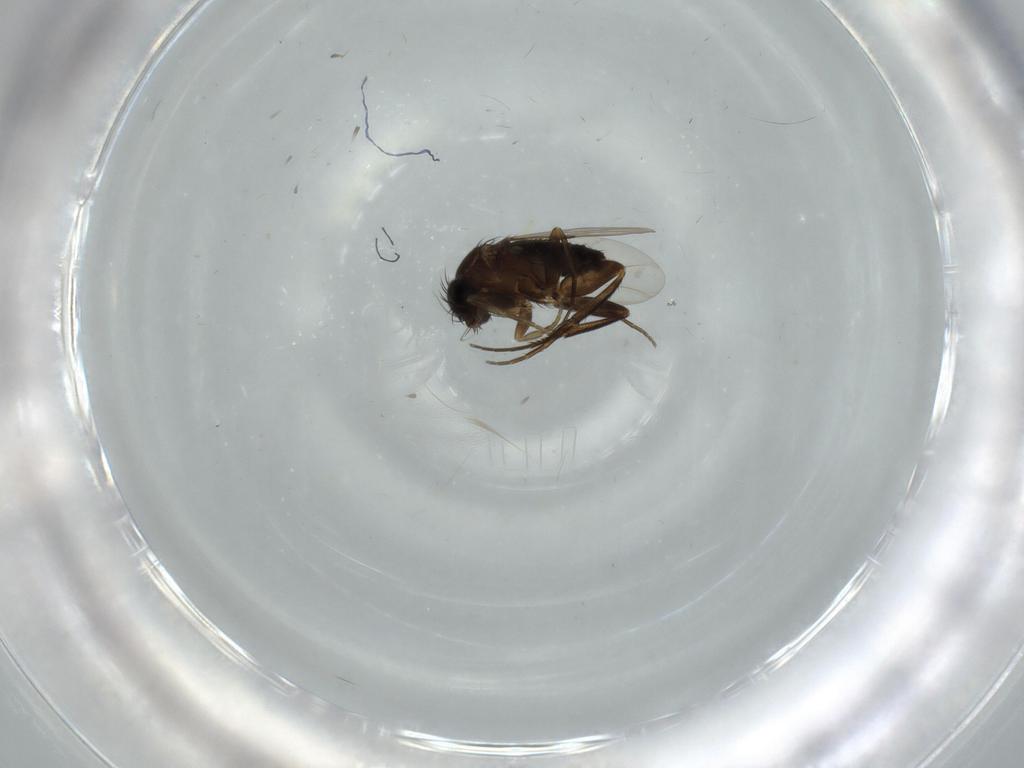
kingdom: Animalia
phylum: Arthropoda
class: Insecta
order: Diptera
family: Phoridae
